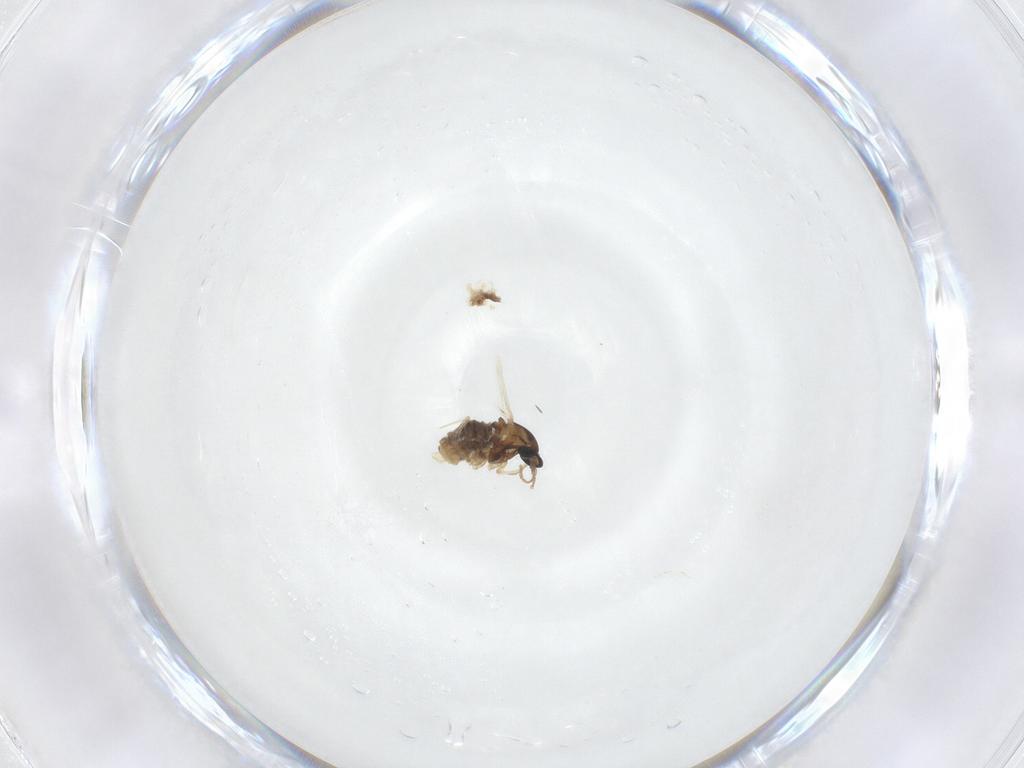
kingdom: Animalia
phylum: Arthropoda
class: Insecta
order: Diptera
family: Cecidomyiidae
